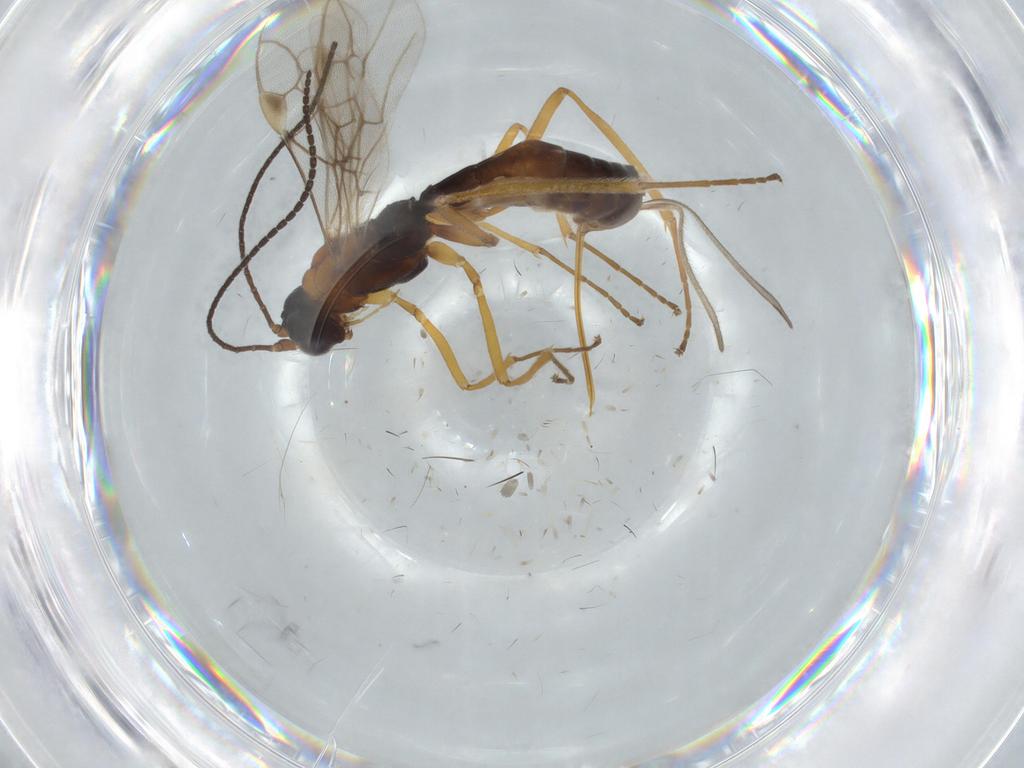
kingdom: Animalia
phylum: Arthropoda
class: Insecta
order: Hymenoptera
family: Braconidae
